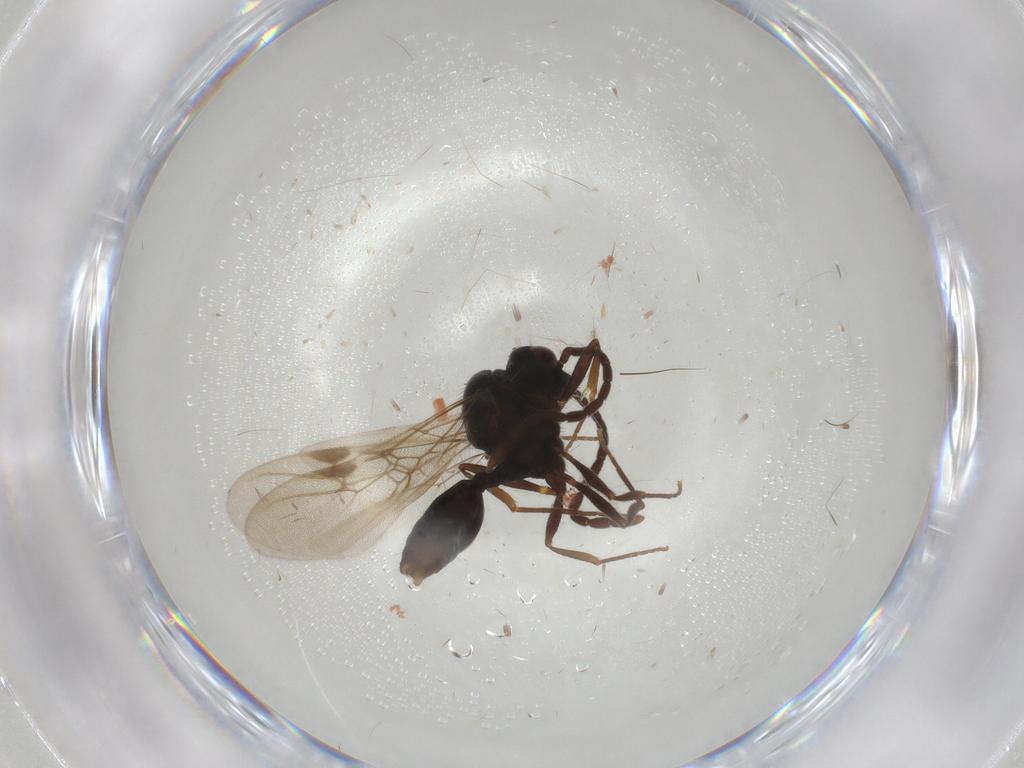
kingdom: Animalia
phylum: Arthropoda
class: Insecta
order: Hymenoptera
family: Formicidae
